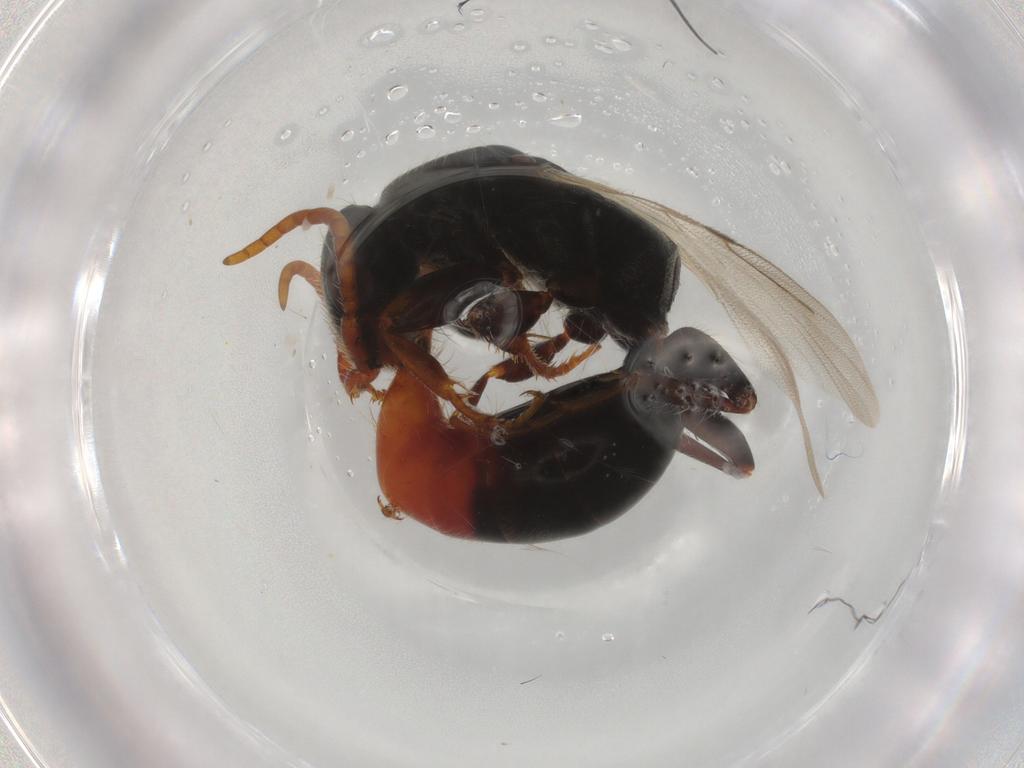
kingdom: Animalia
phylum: Arthropoda
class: Insecta
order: Hymenoptera
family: Bethylidae
